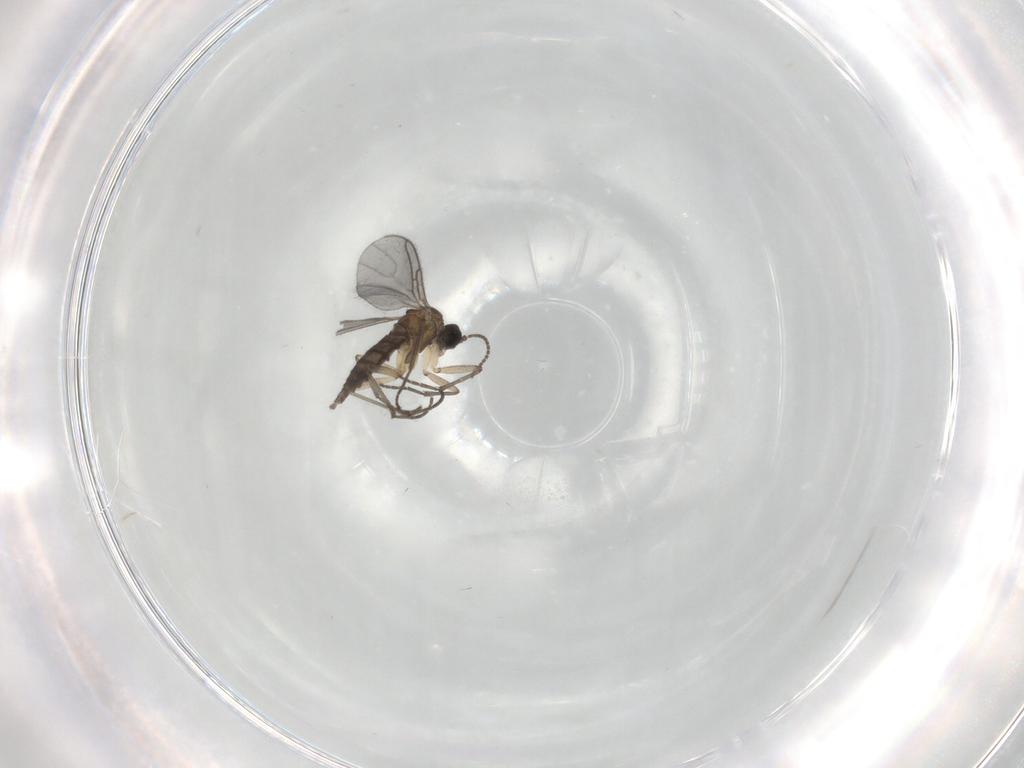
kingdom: Animalia
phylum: Arthropoda
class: Insecta
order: Diptera
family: Sciaridae
